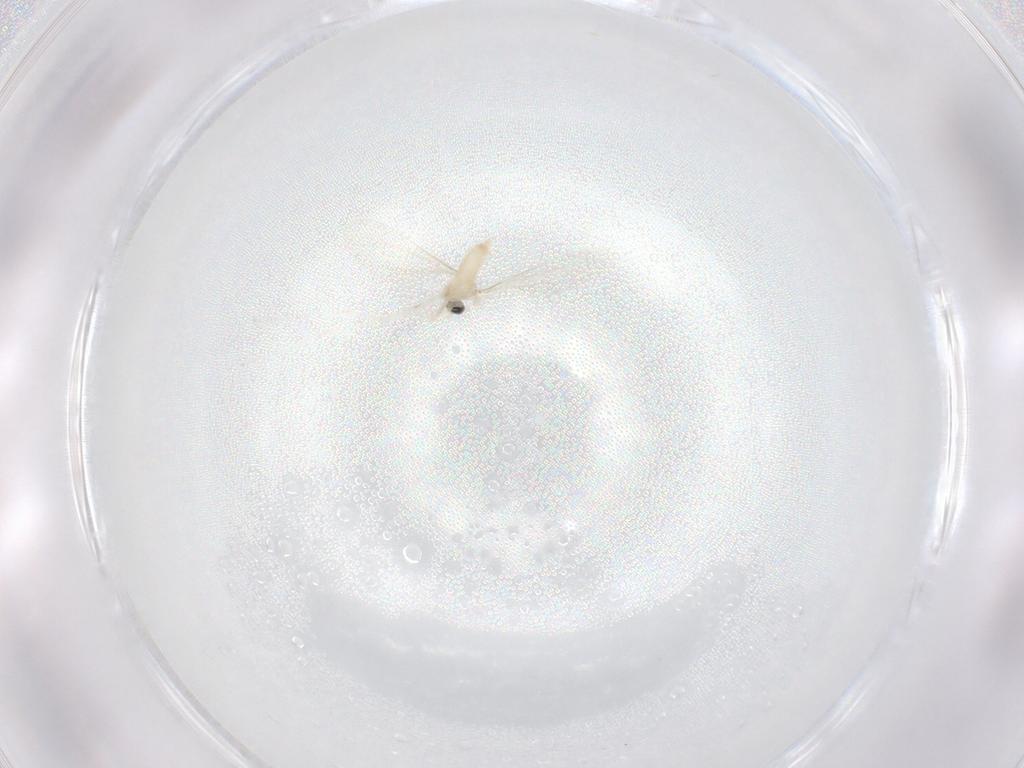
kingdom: Animalia
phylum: Arthropoda
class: Insecta
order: Diptera
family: Cecidomyiidae
